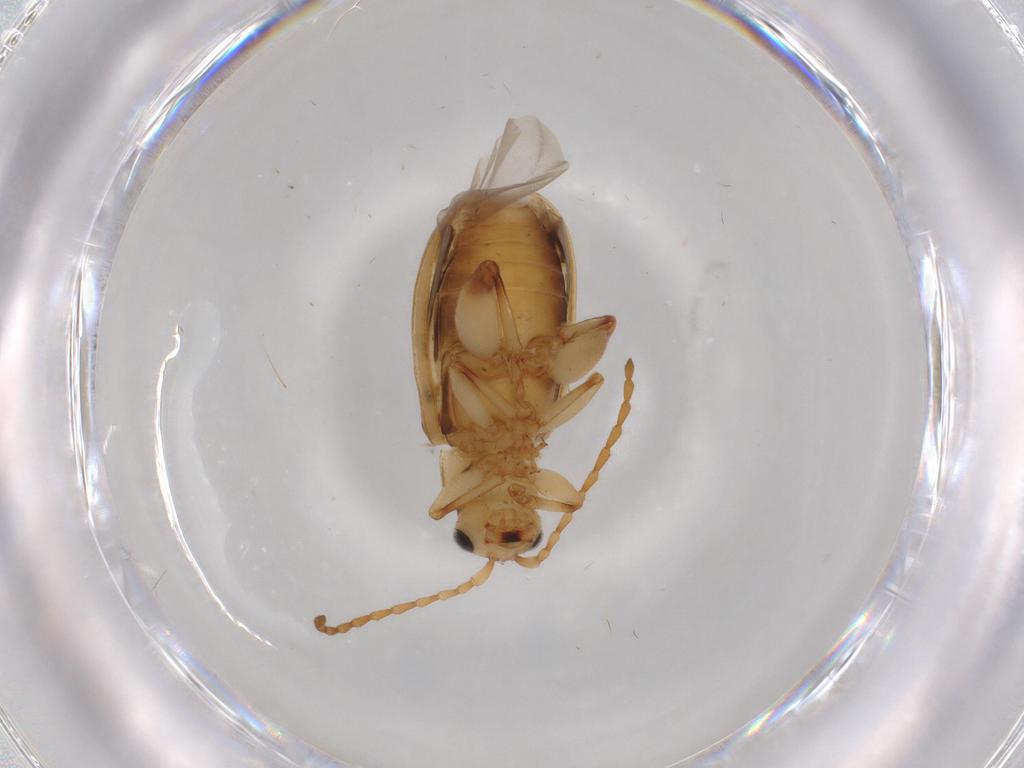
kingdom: Animalia
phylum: Arthropoda
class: Insecta
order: Coleoptera
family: Chrysomelidae
